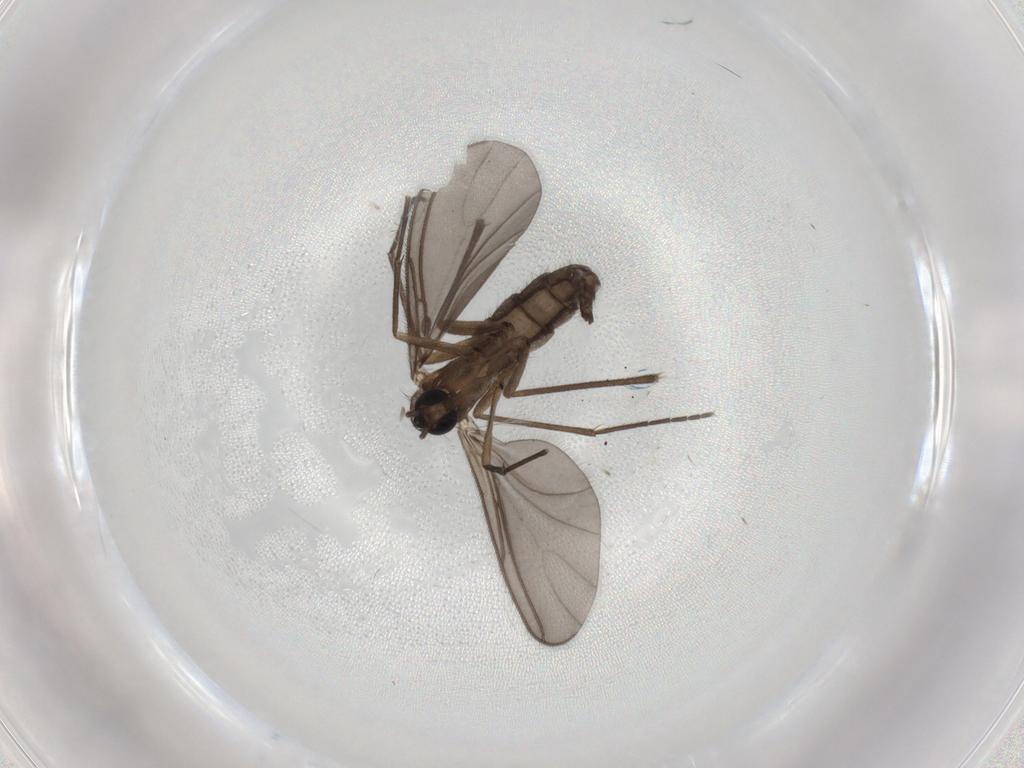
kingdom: Animalia
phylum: Arthropoda
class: Insecta
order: Diptera
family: Sciaridae
